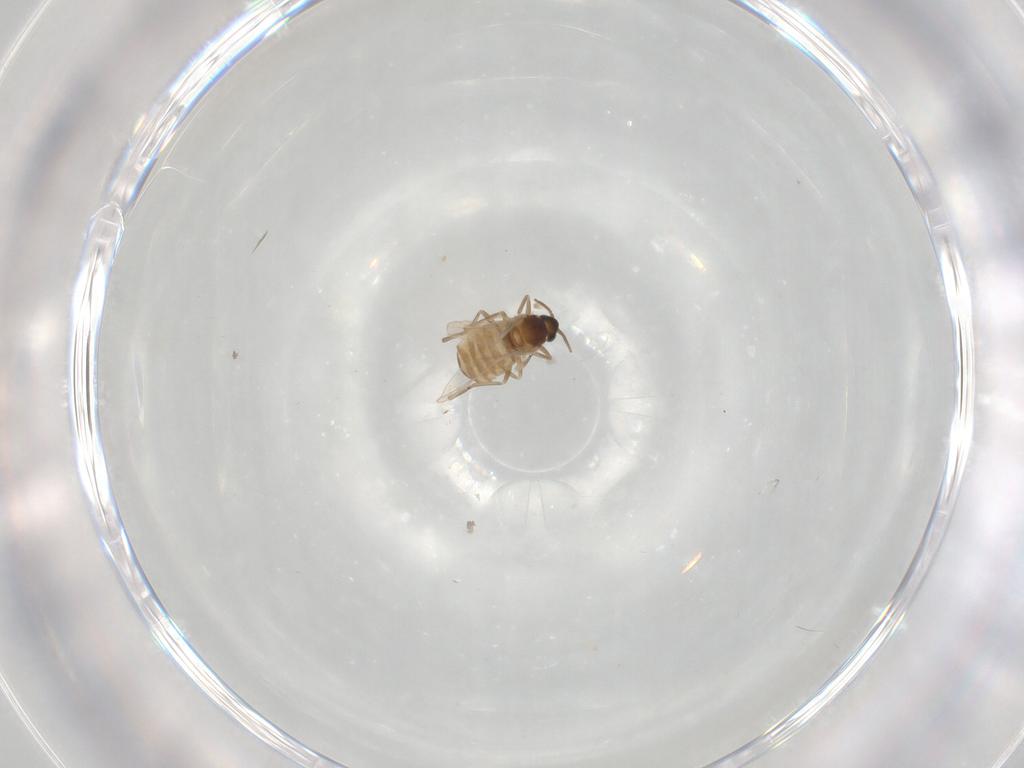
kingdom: Animalia
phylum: Arthropoda
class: Insecta
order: Diptera
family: Cecidomyiidae
